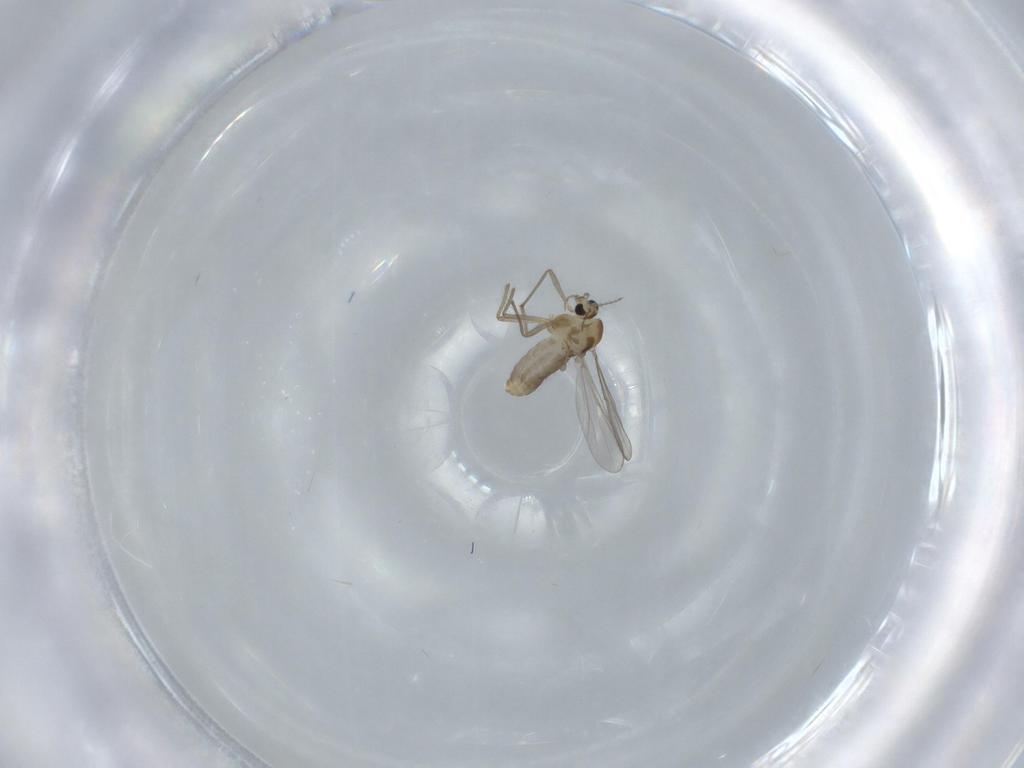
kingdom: Animalia
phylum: Arthropoda
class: Insecta
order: Diptera
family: Chironomidae
